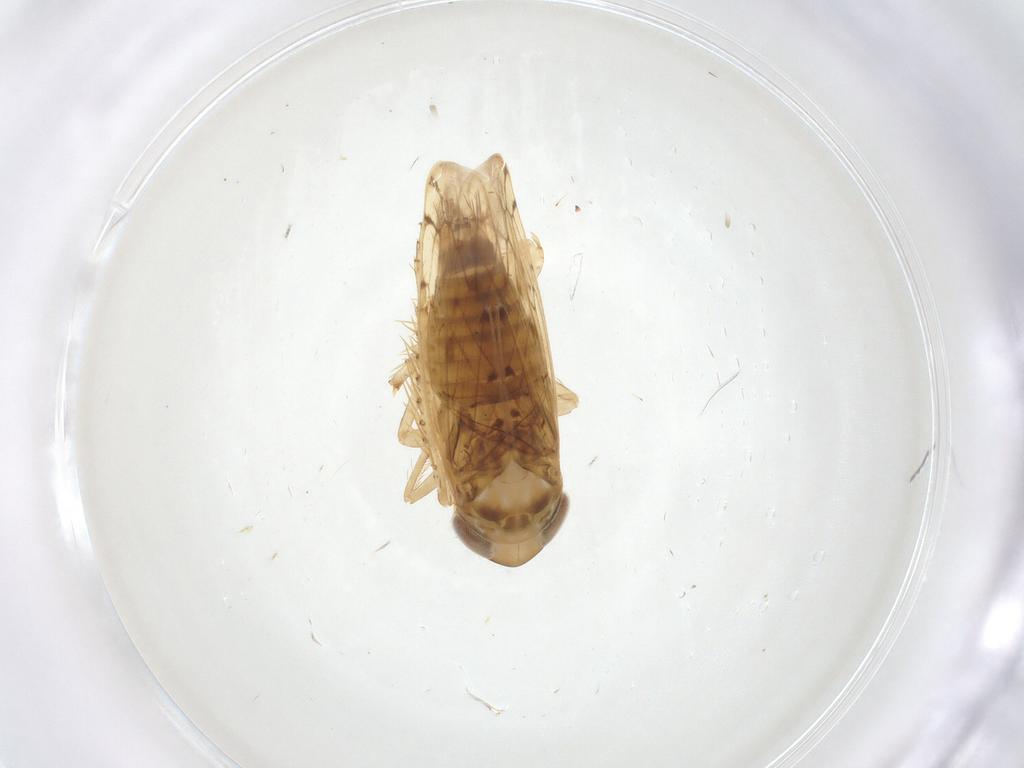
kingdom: Animalia
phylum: Arthropoda
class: Insecta
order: Hemiptera
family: Cicadellidae
